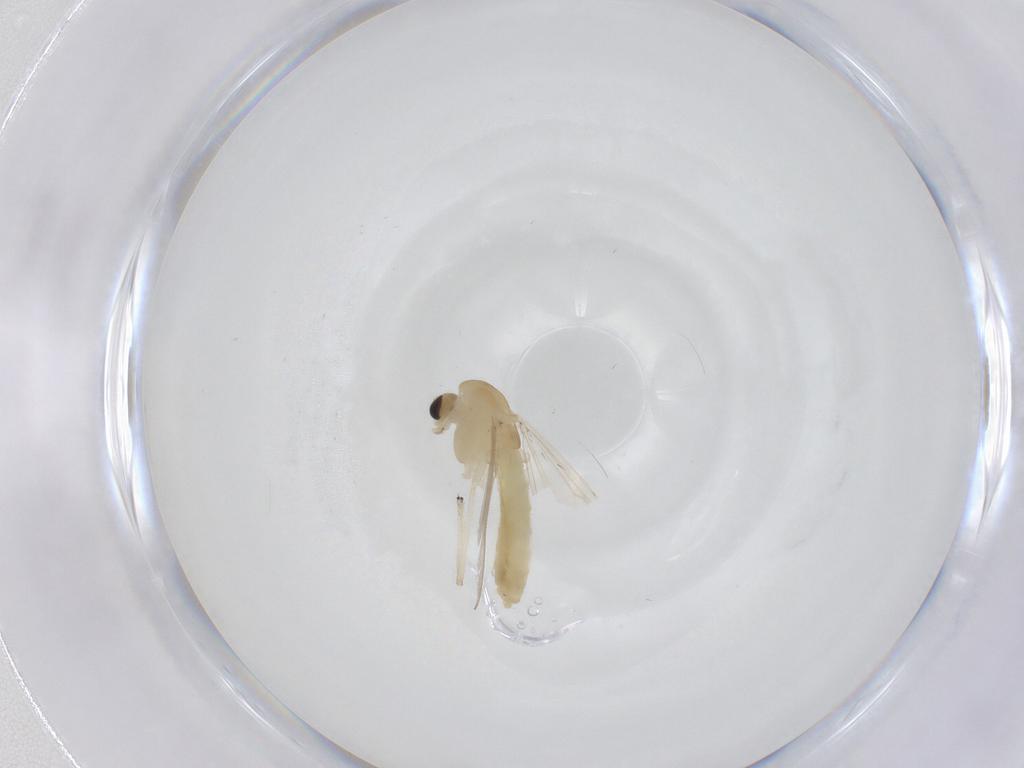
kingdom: Animalia
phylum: Arthropoda
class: Insecta
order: Diptera
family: Chironomidae
